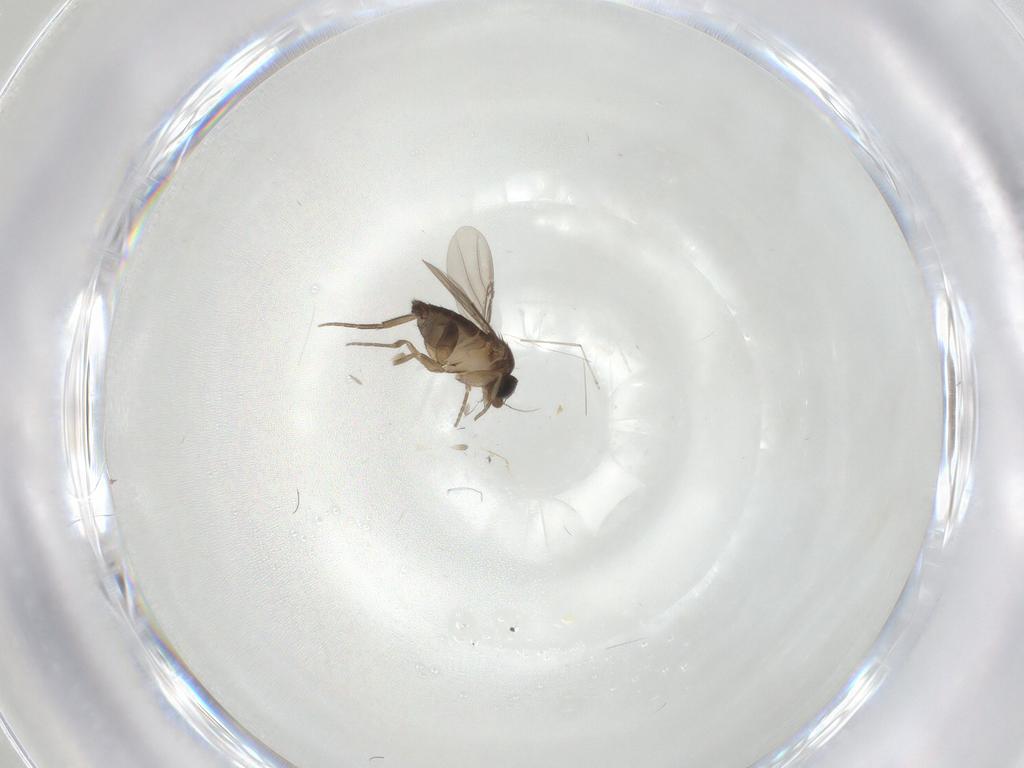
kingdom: Animalia
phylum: Arthropoda
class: Insecta
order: Diptera
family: Phoridae
